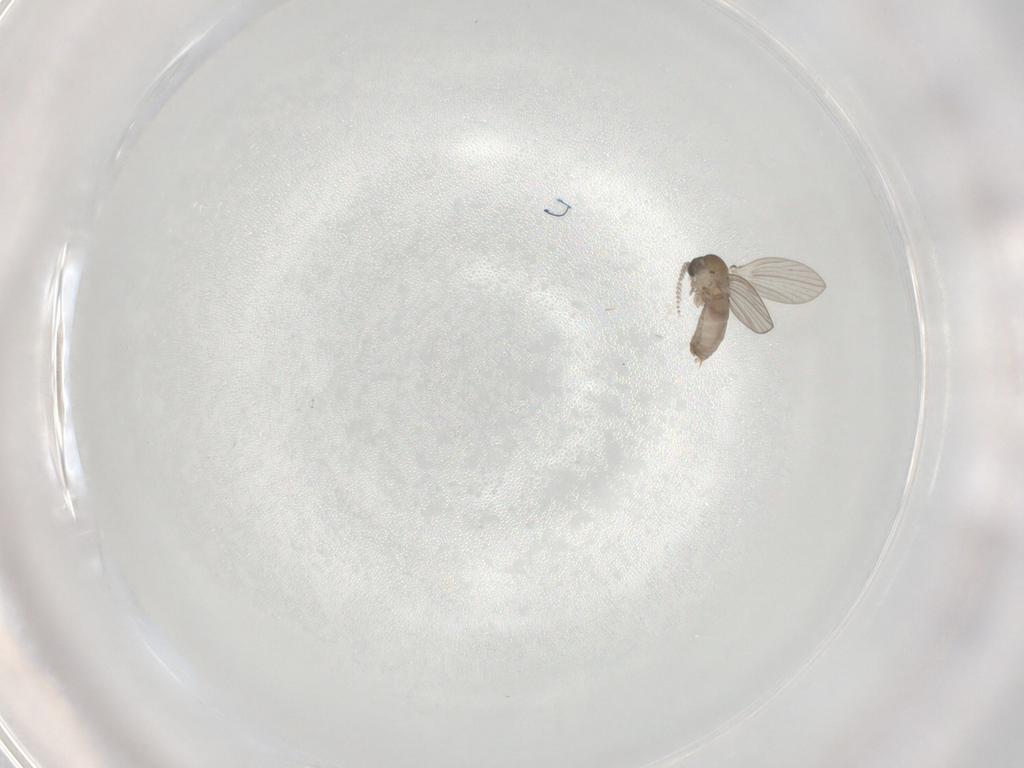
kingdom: Animalia
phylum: Arthropoda
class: Insecta
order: Diptera
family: Psychodidae
